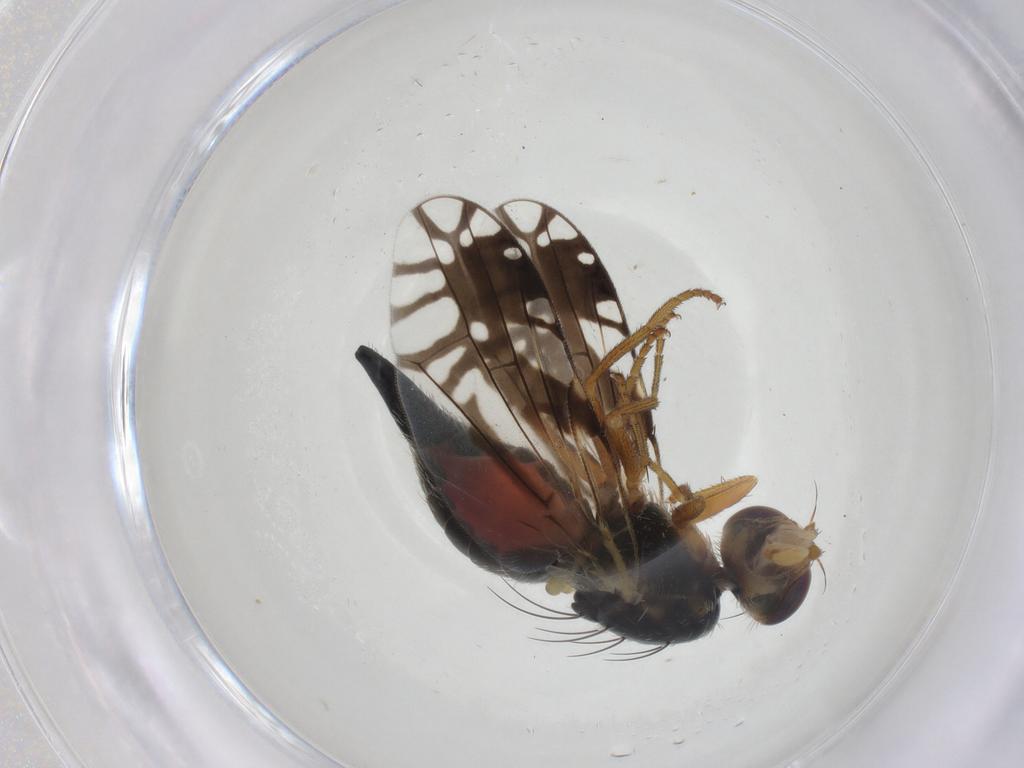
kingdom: Animalia
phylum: Arthropoda
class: Insecta
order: Diptera
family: Tephritidae
